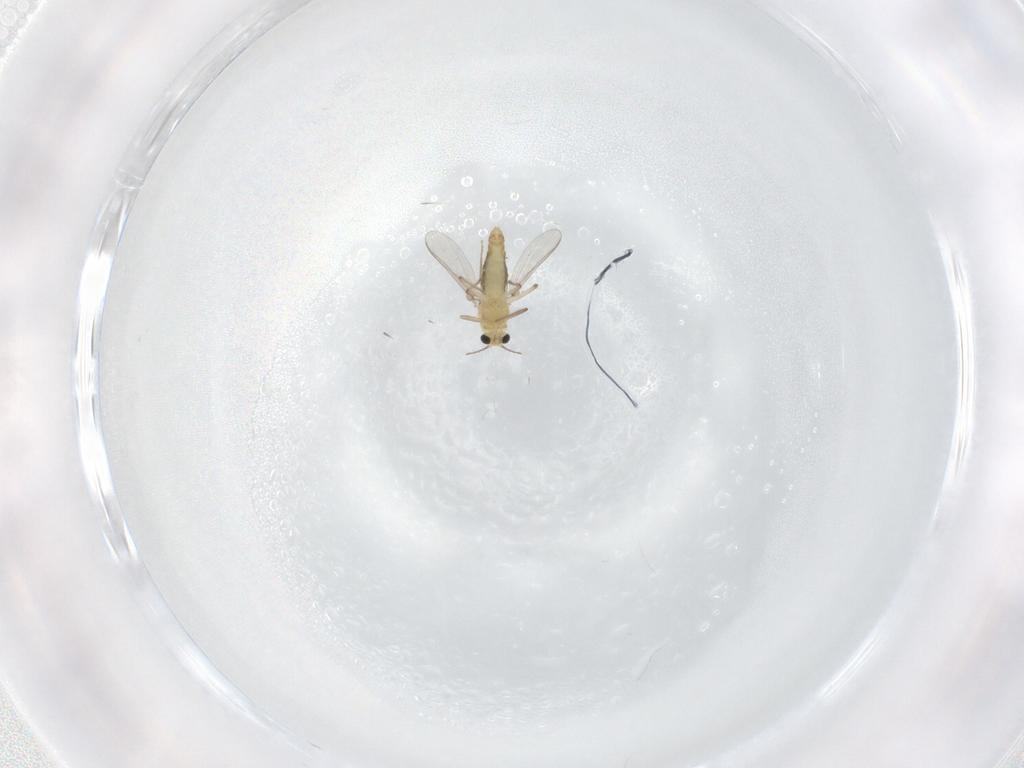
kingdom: Animalia
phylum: Arthropoda
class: Insecta
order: Diptera
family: Chironomidae
